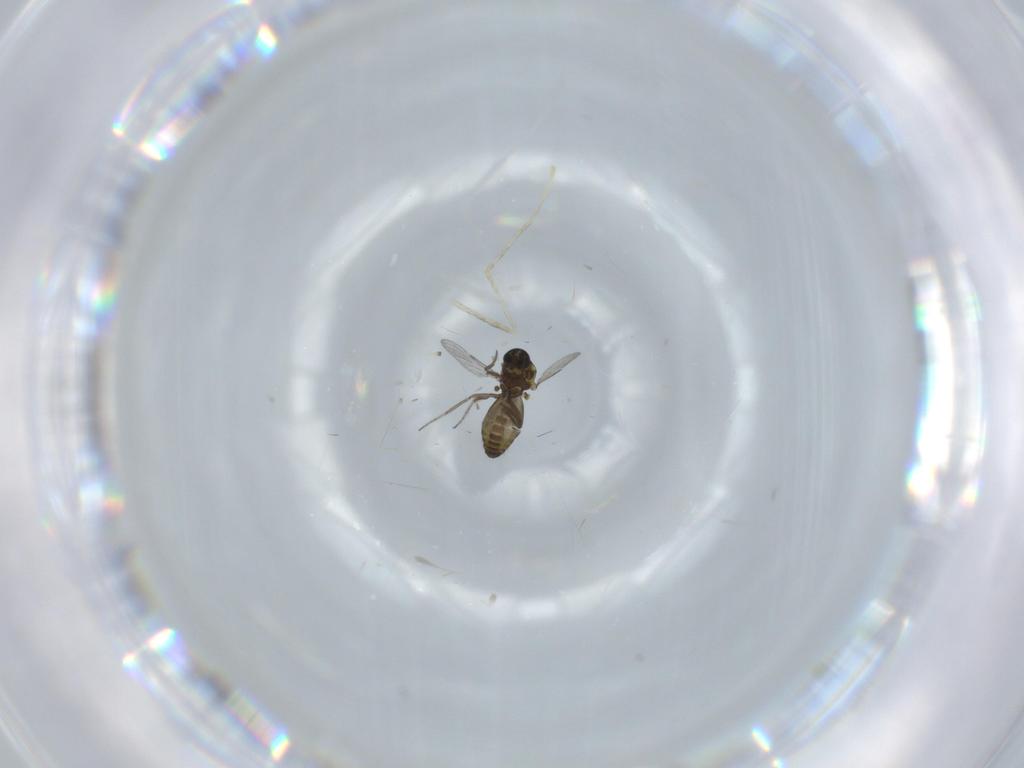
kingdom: Animalia
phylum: Arthropoda
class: Insecta
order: Diptera
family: Ceratopogonidae
